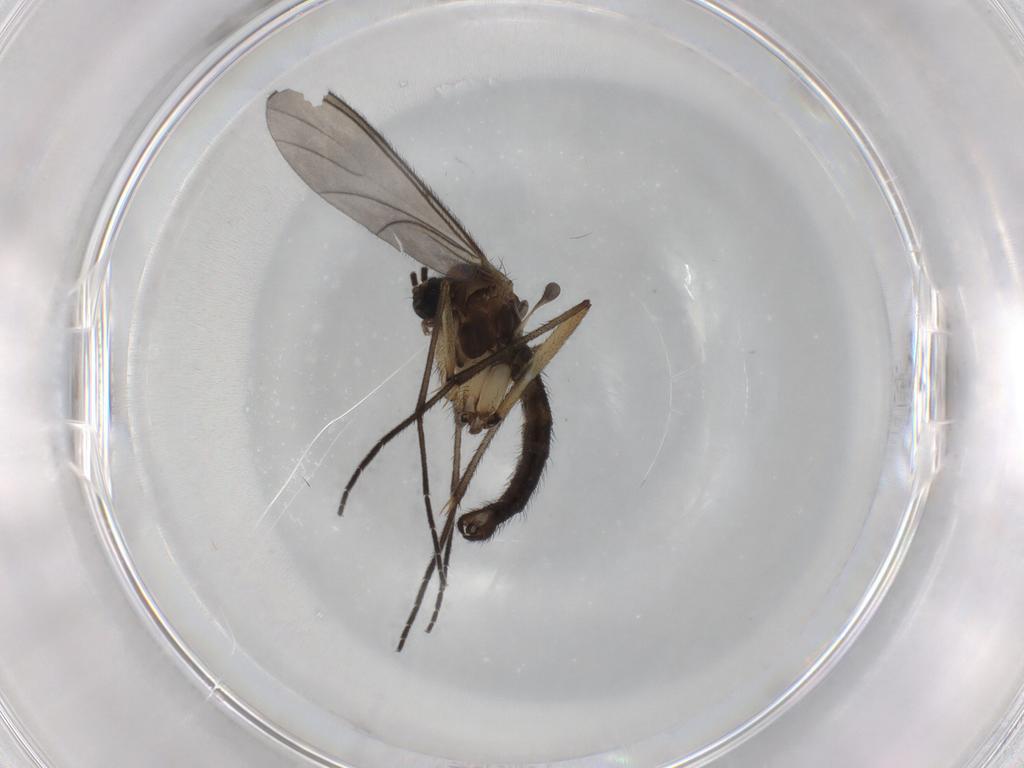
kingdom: Animalia
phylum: Arthropoda
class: Insecta
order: Diptera
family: Sciaridae
